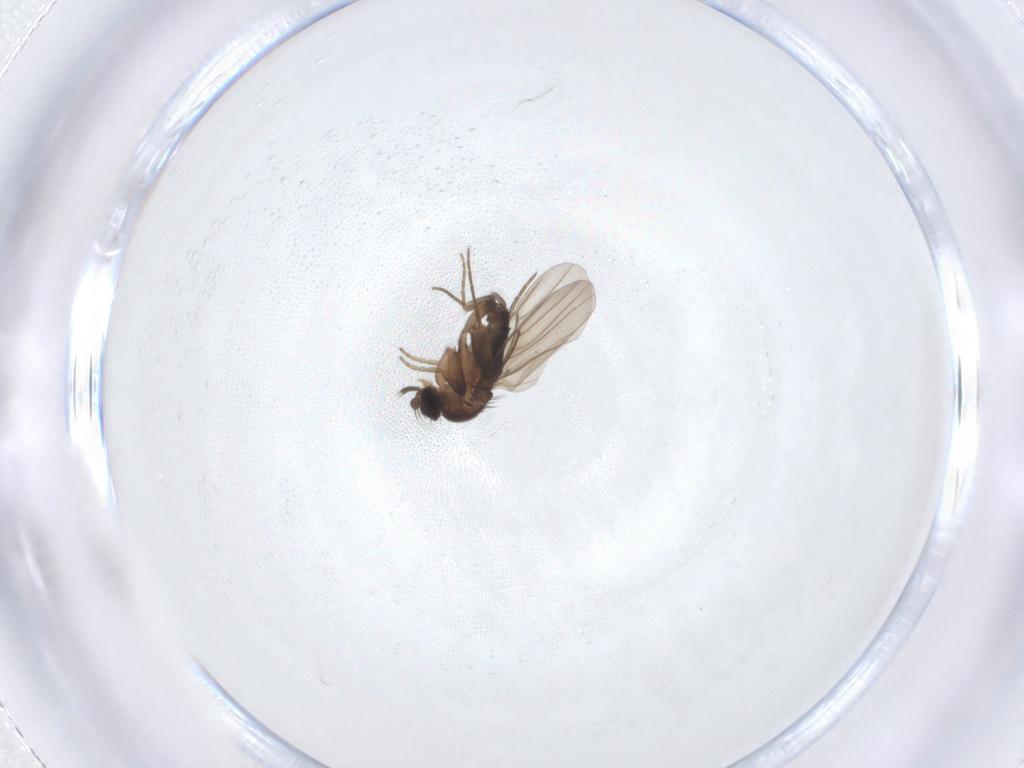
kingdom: Animalia
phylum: Arthropoda
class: Insecta
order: Diptera
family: Phoridae
